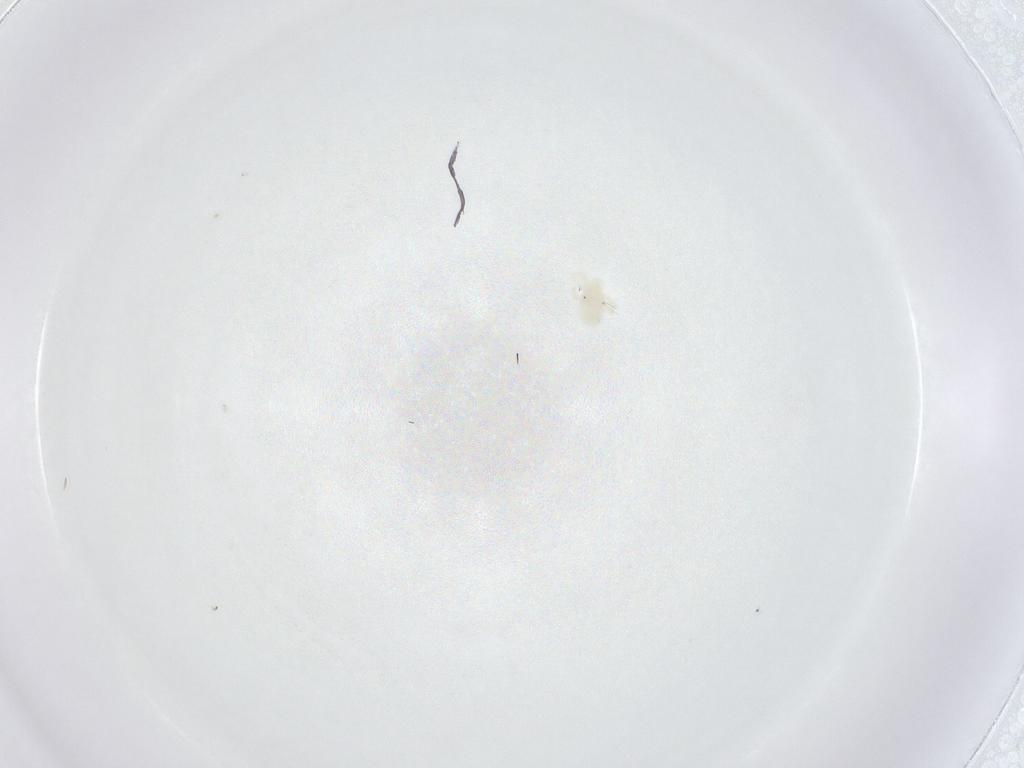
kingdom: Animalia
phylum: Arthropoda
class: Arachnida
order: Trombidiformes
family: Anystidae
